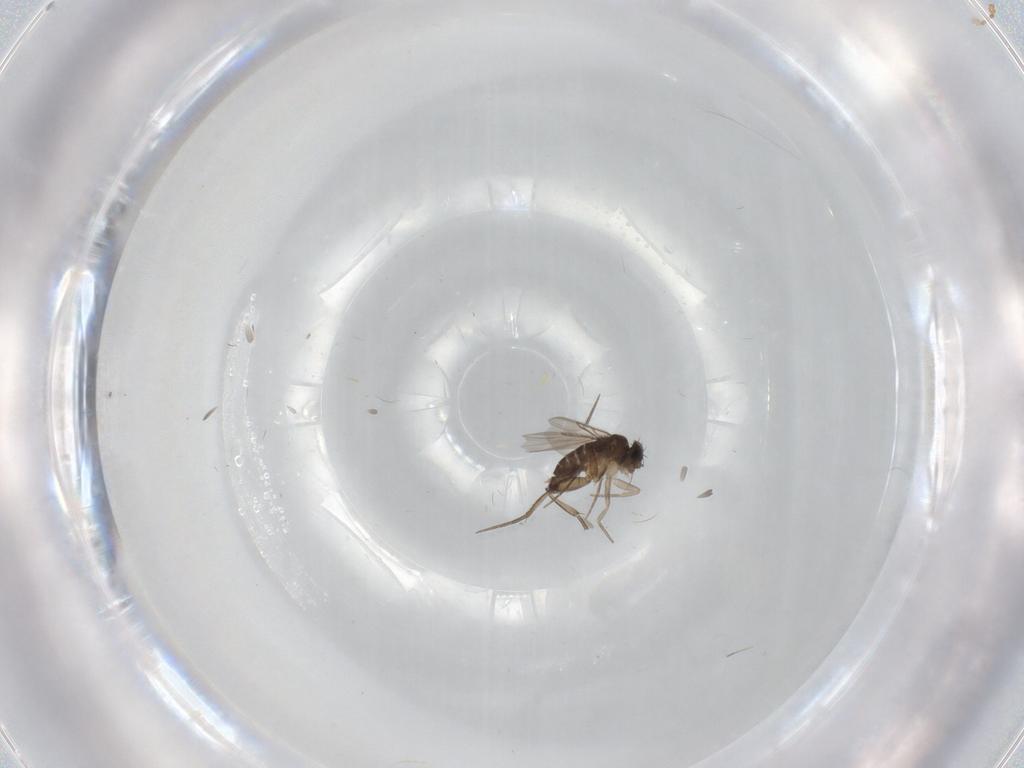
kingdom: Animalia
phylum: Arthropoda
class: Insecta
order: Diptera
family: Phoridae
